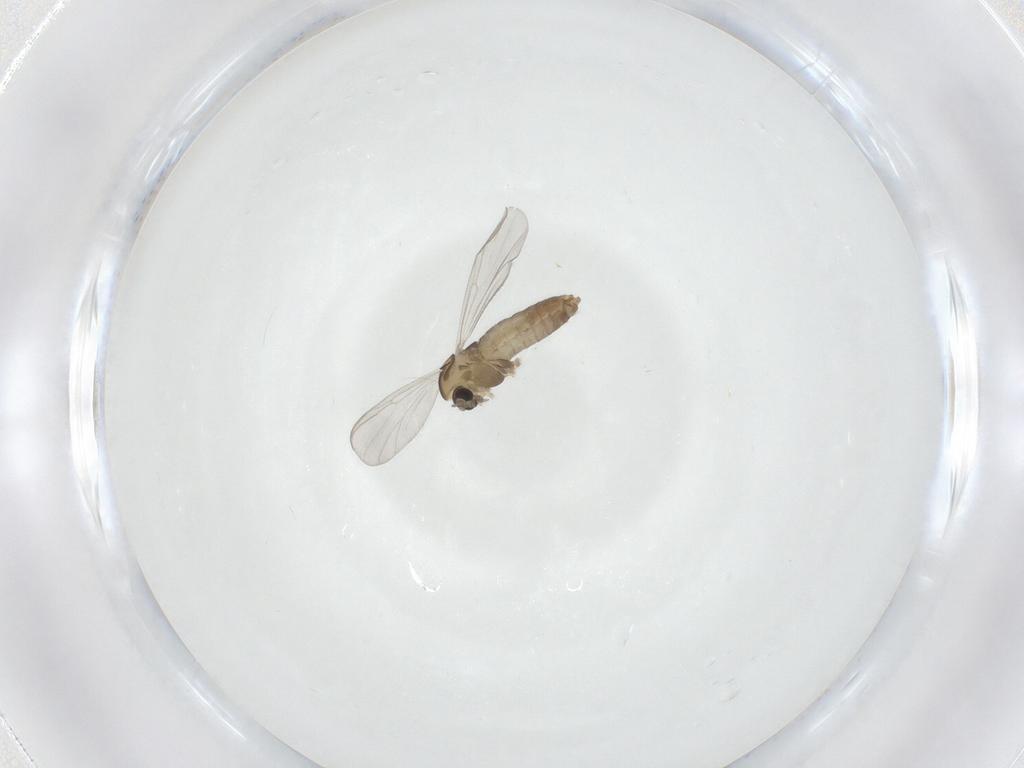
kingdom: Animalia
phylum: Arthropoda
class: Insecta
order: Diptera
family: Chironomidae
